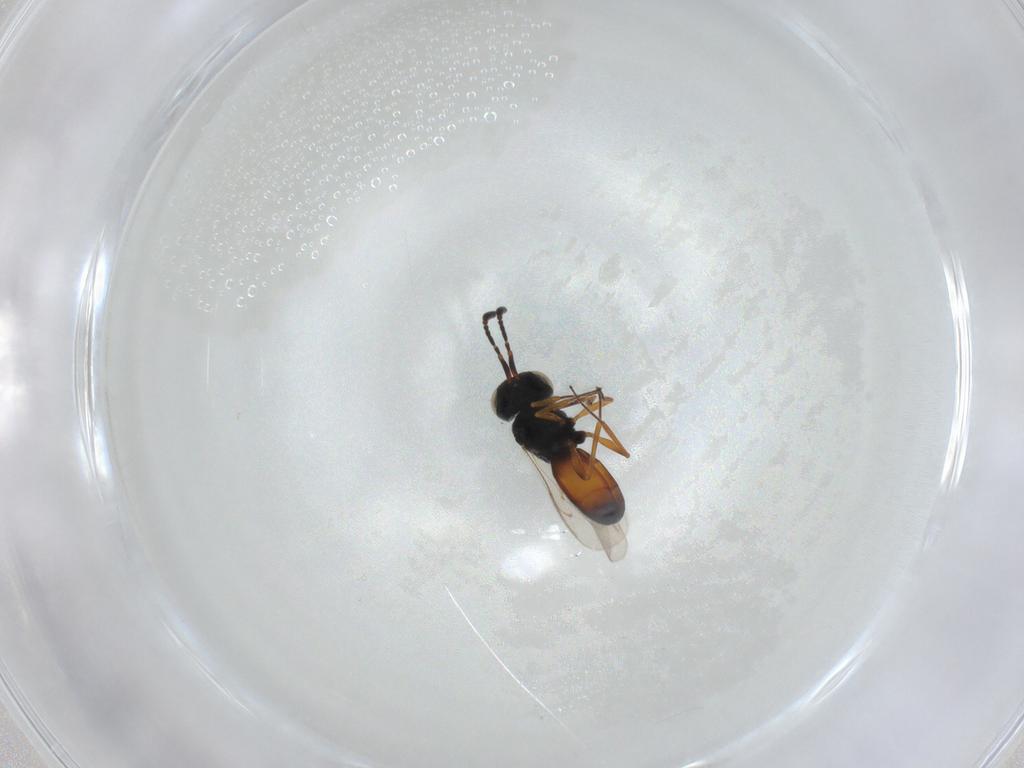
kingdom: Animalia
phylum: Arthropoda
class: Insecta
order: Hymenoptera
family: Scelionidae
